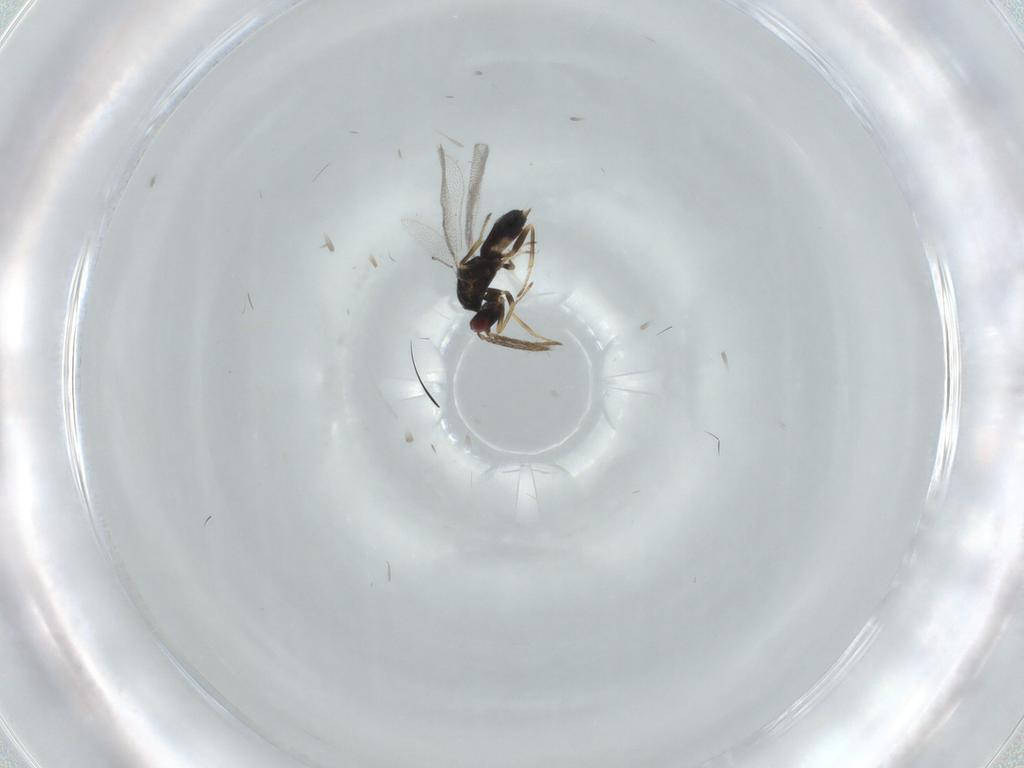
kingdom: Animalia
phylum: Arthropoda
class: Insecta
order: Hymenoptera
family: Eulophidae
